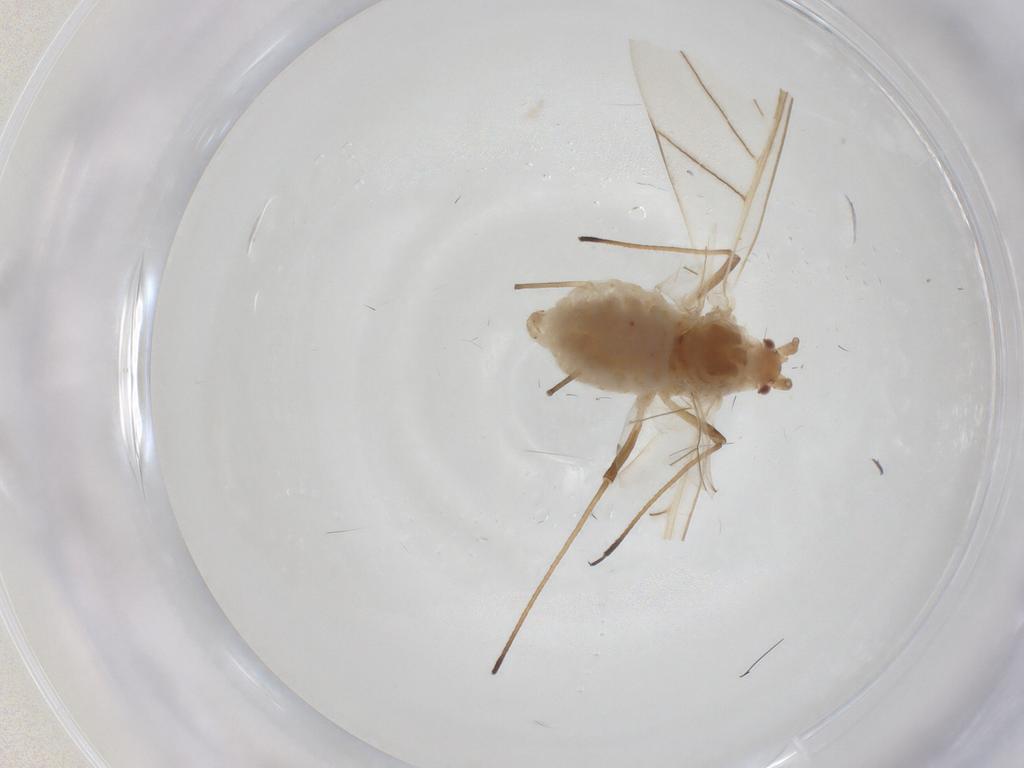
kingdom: Animalia
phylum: Arthropoda
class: Insecta
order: Hemiptera
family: Aphididae
